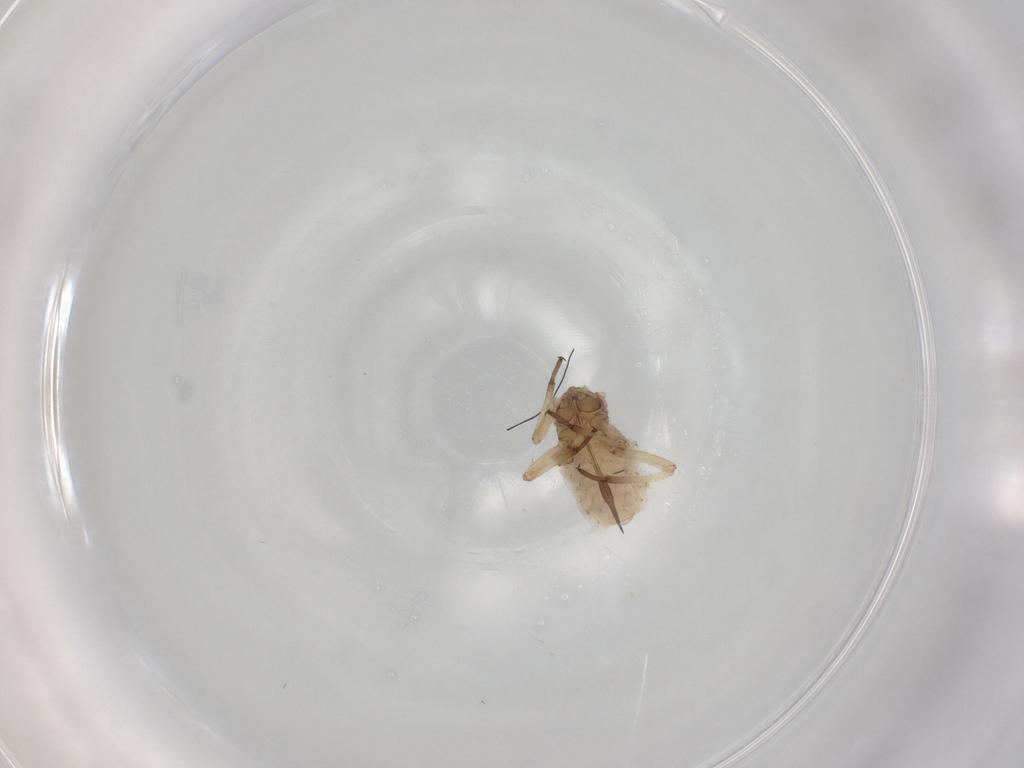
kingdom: Animalia
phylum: Arthropoda
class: Insecta
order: Hemiptera
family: Aphididae
